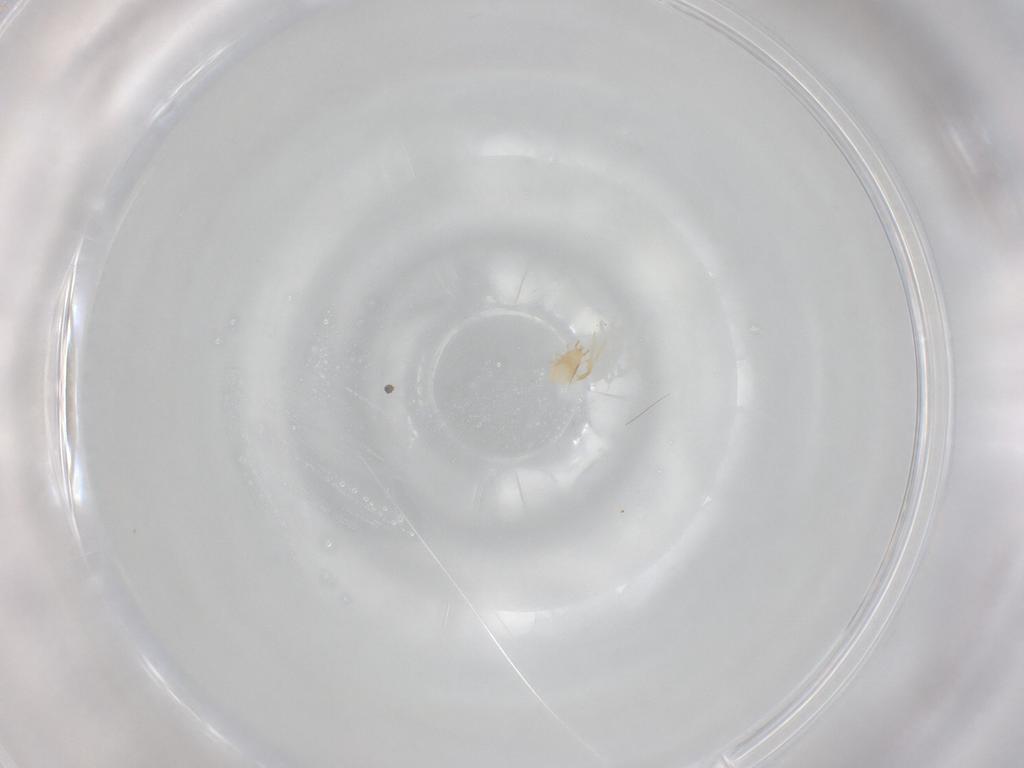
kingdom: Animalia
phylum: Arthropoda
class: Arachnida
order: Mesostigmata
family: Phytoseiidae
